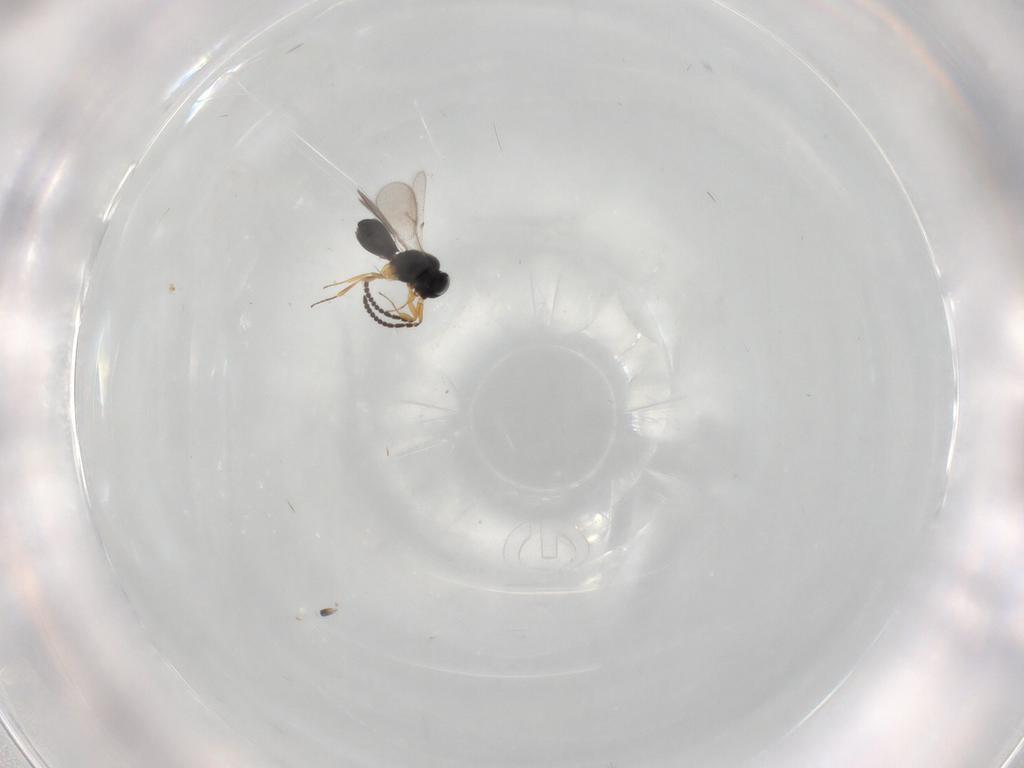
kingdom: Animalia
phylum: Arthropoda
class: Insecta
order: Hymenoptera
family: Scelionidae
